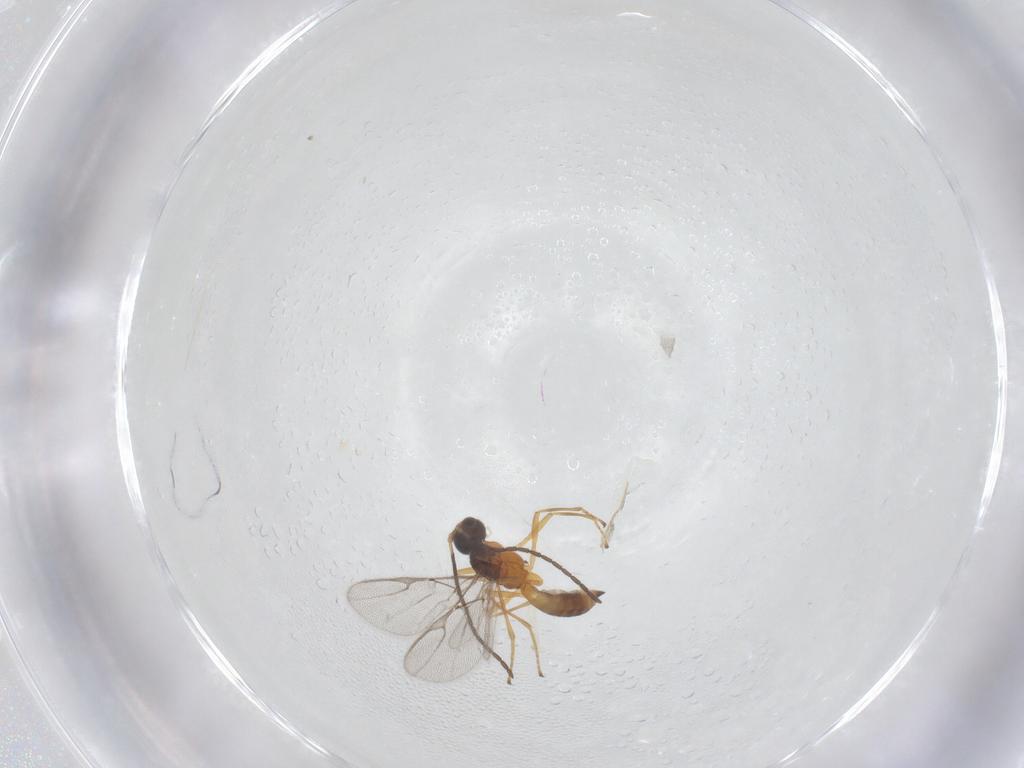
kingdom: Animalia
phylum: Arthropoda
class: Insecta
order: Hymenoptera
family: Braconidae
